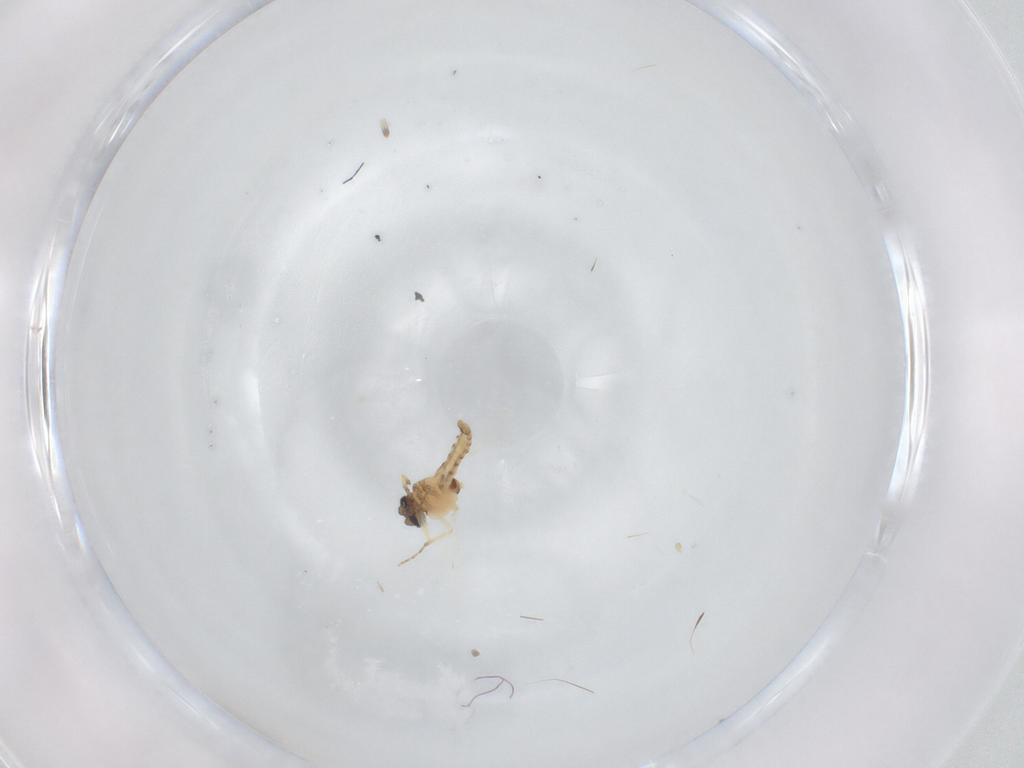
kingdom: Animalia
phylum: Arthropoda
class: Insecta
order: Diptera
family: Ceratopogonidae
